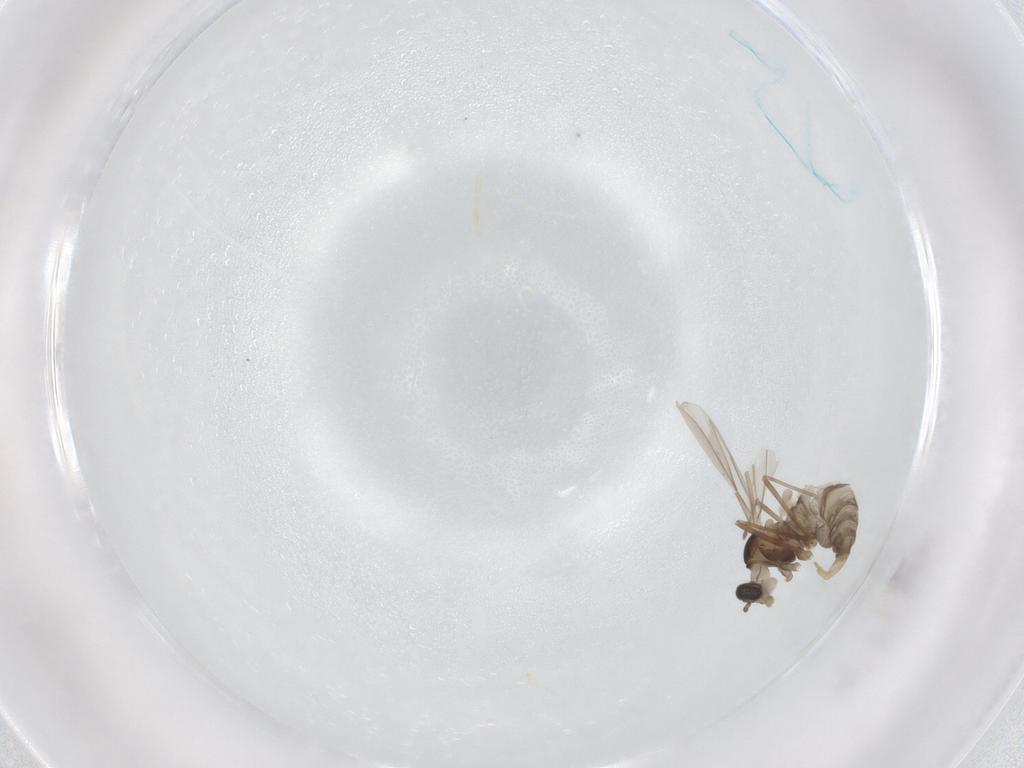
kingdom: Animalia
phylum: Arthropoda
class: Insecta
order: Diptera
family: Cecidomyiidae
